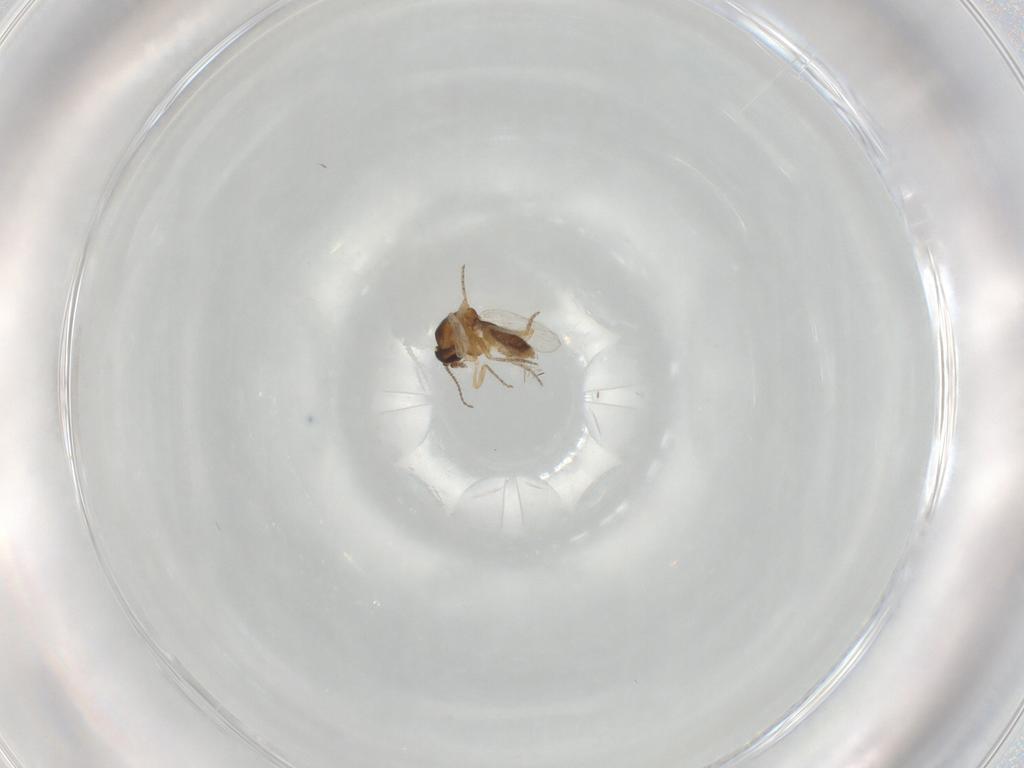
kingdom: Animalia
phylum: Arthropoda
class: Insecta
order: Diptera
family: Ceratopogonidae
